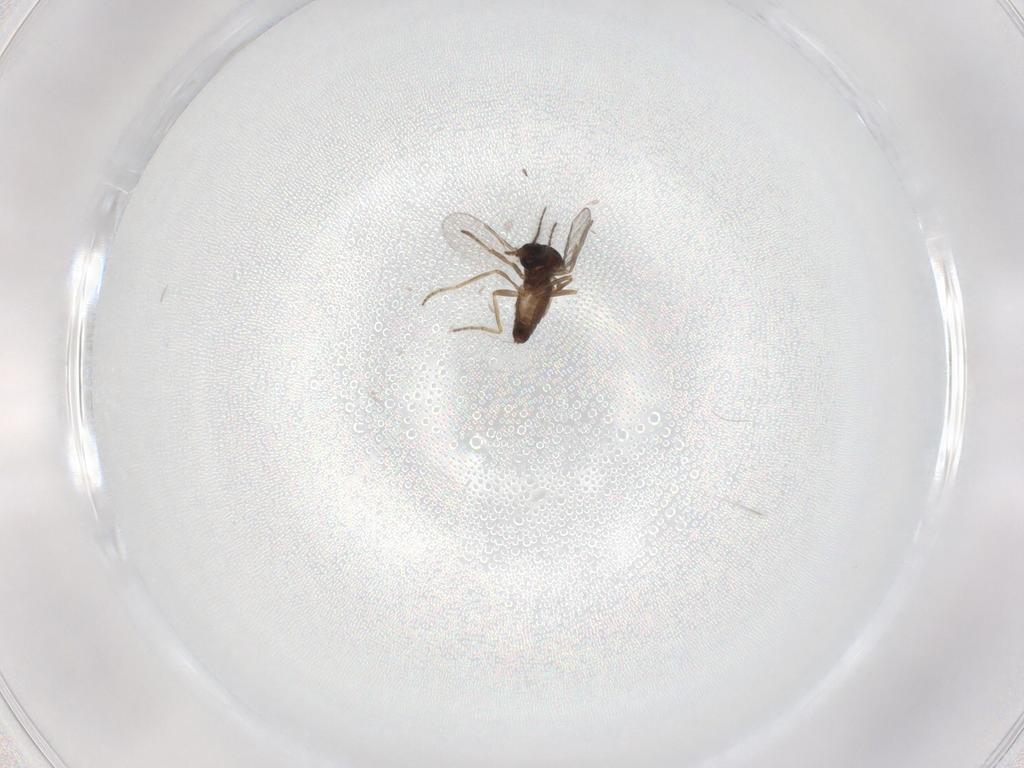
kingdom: Animalia
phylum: Arthropoda
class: Insecta
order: Diptera
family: Ceratopogonidae
